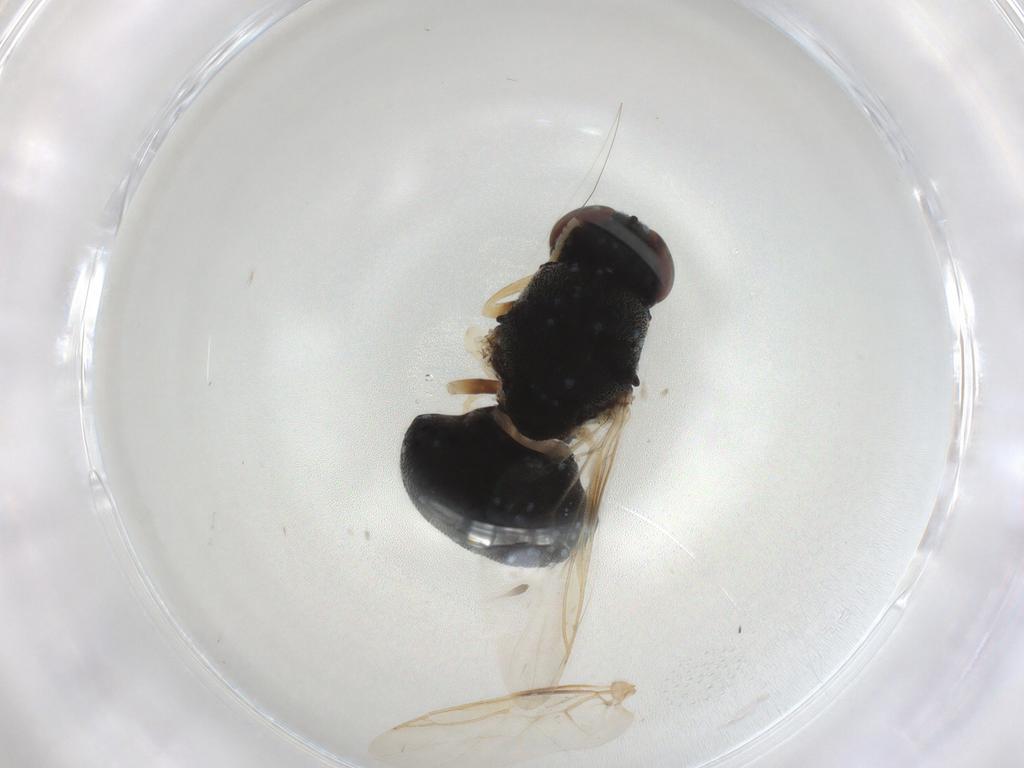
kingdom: Animalia
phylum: Arthropoda
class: Insecta
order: Diptera
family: Stratiomyidae
